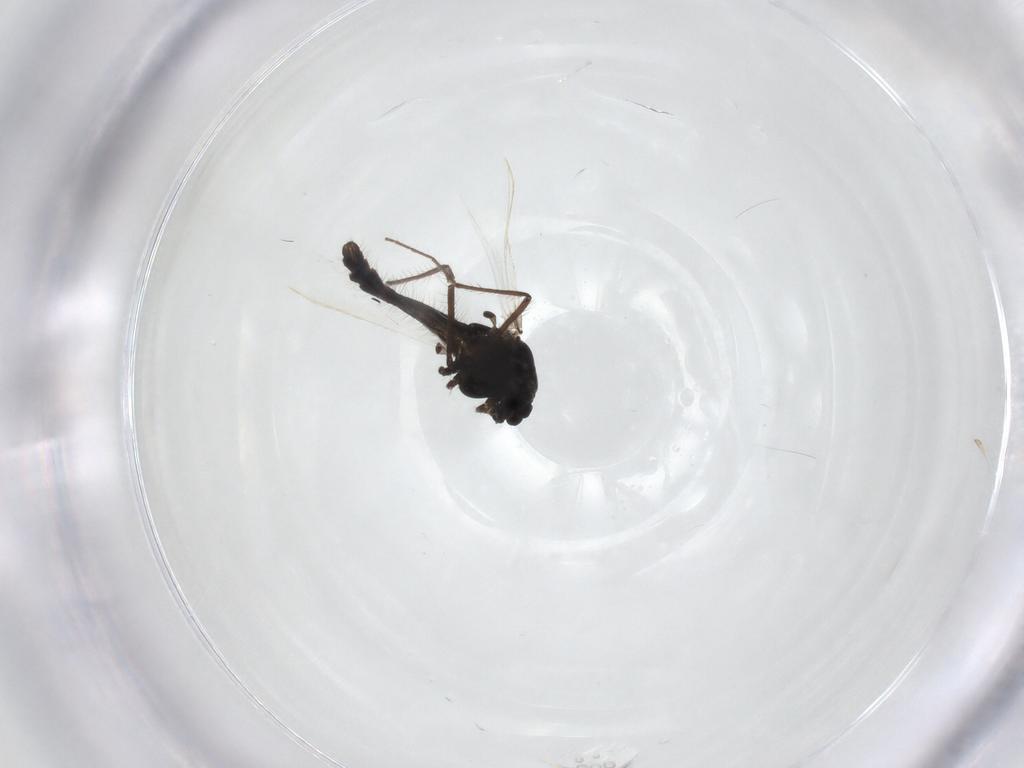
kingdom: Animalia
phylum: Arthropoda
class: Insecta
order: Diptera
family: Chironomidae
